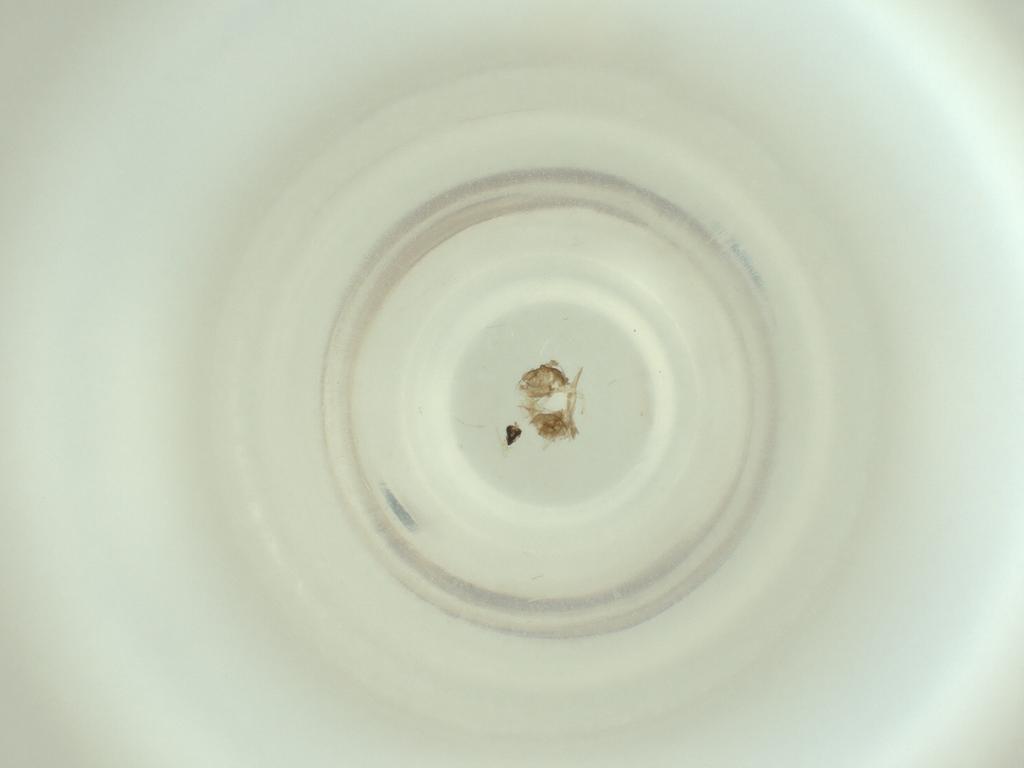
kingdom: Animalia
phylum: Arthropoda
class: Insecta
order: Diptera
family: Cecidomyiidae
